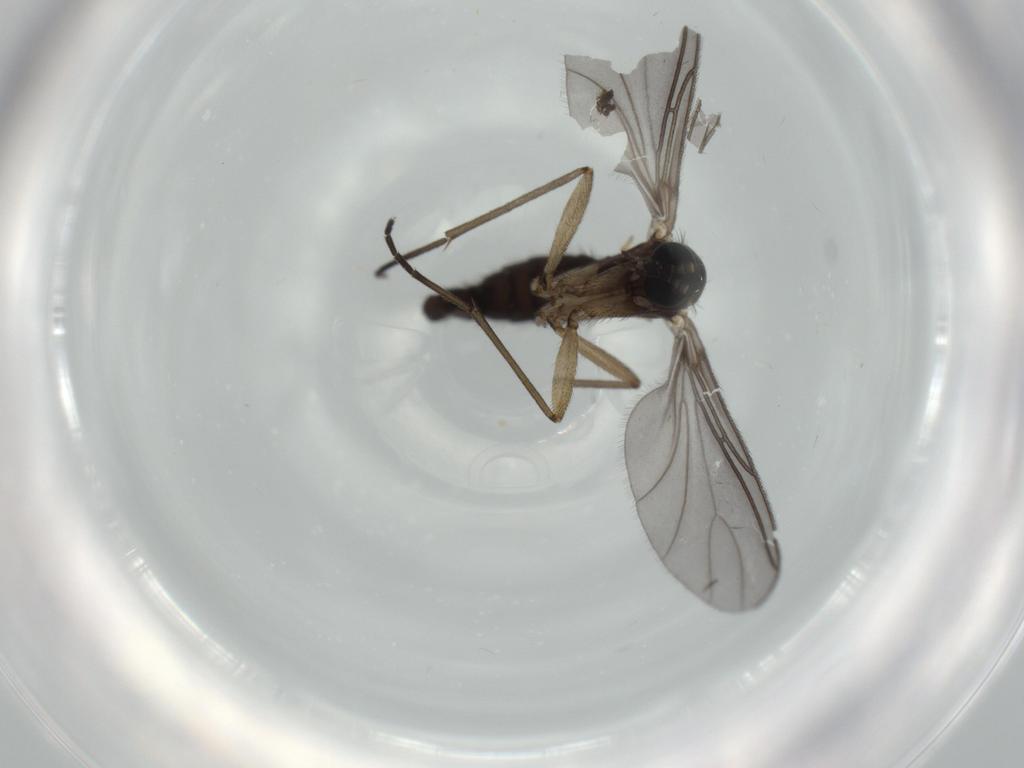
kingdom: Animalia
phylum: Arthropoda
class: Insecta
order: Diptera
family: Sciaridae
